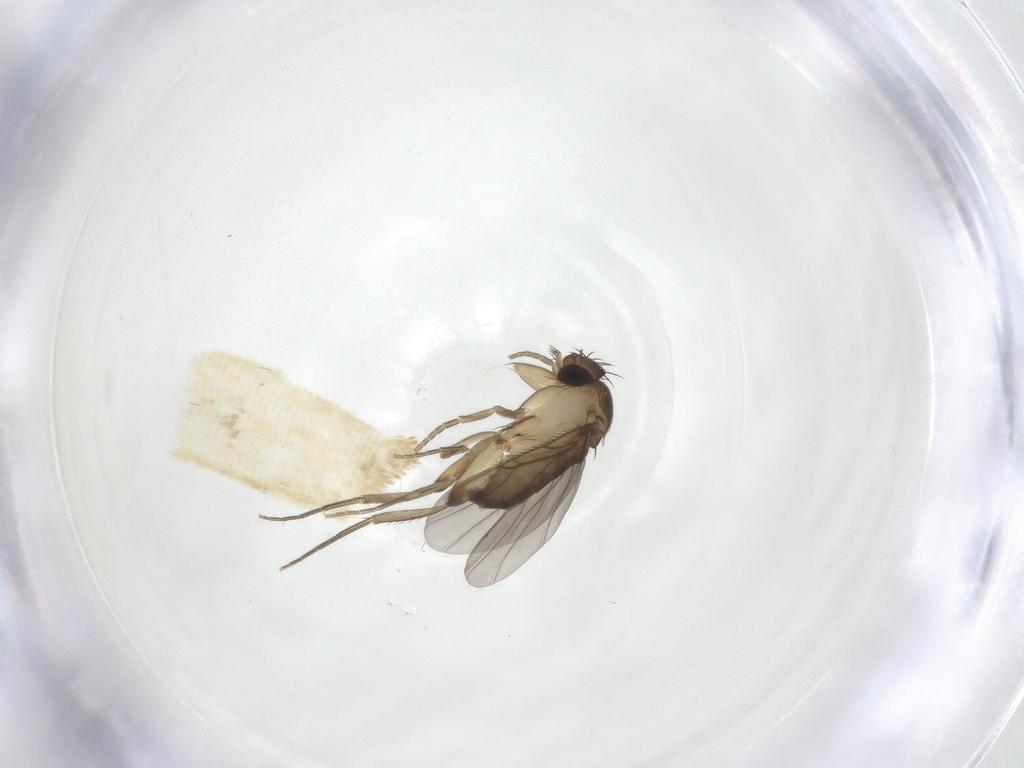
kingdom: Animalia
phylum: Arthropoda
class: Insecta
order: Diptera
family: Phoridae
